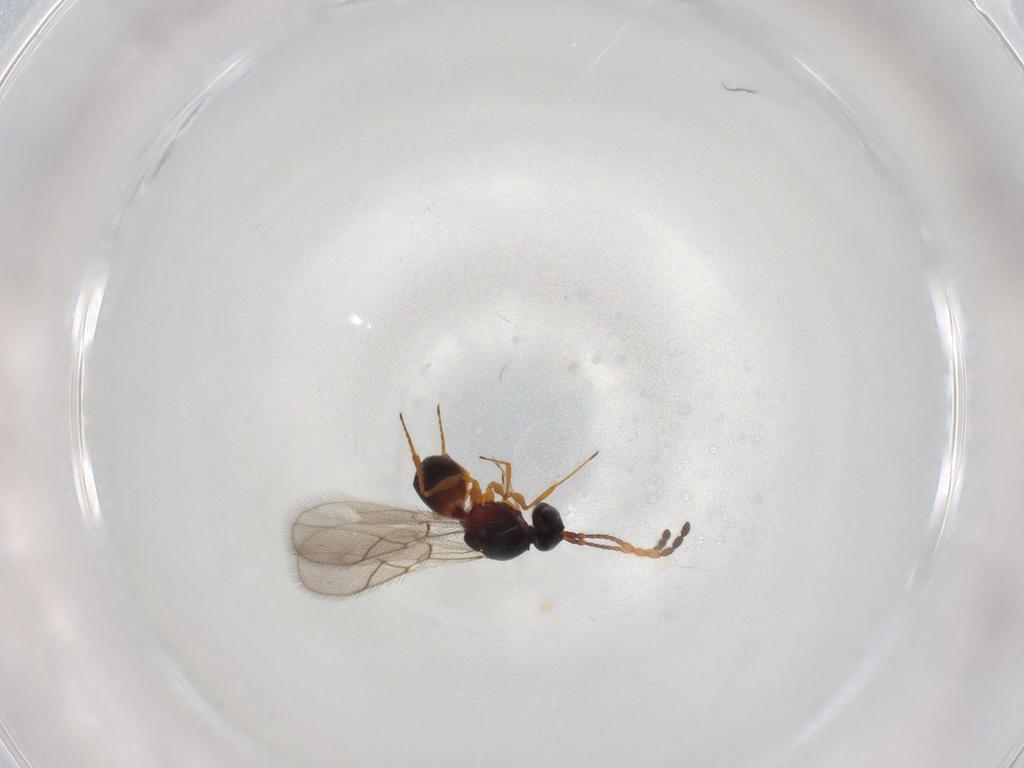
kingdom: Animalia
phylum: Arthropoda
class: Insecta
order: Hymenoptera
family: Figitidae
